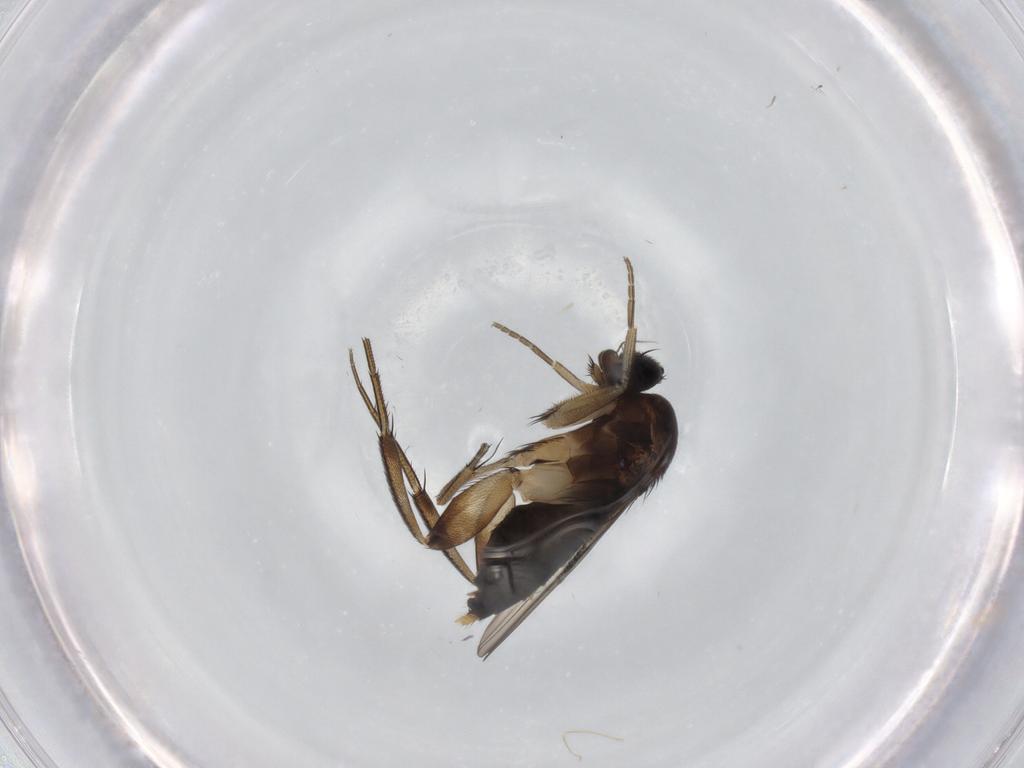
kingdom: Animalia
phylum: Arthropoda
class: Insecta
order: Diptera
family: Phoridae
